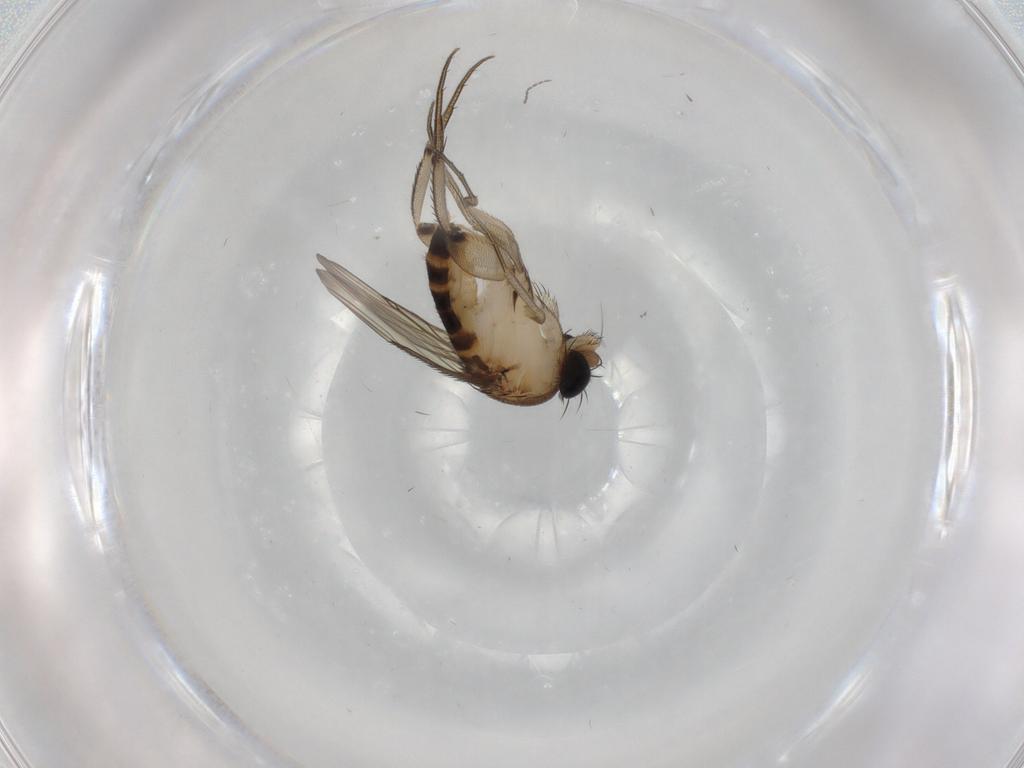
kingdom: Animalia
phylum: Arthropoda
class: Insecta
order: Diptera
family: Phoridae
